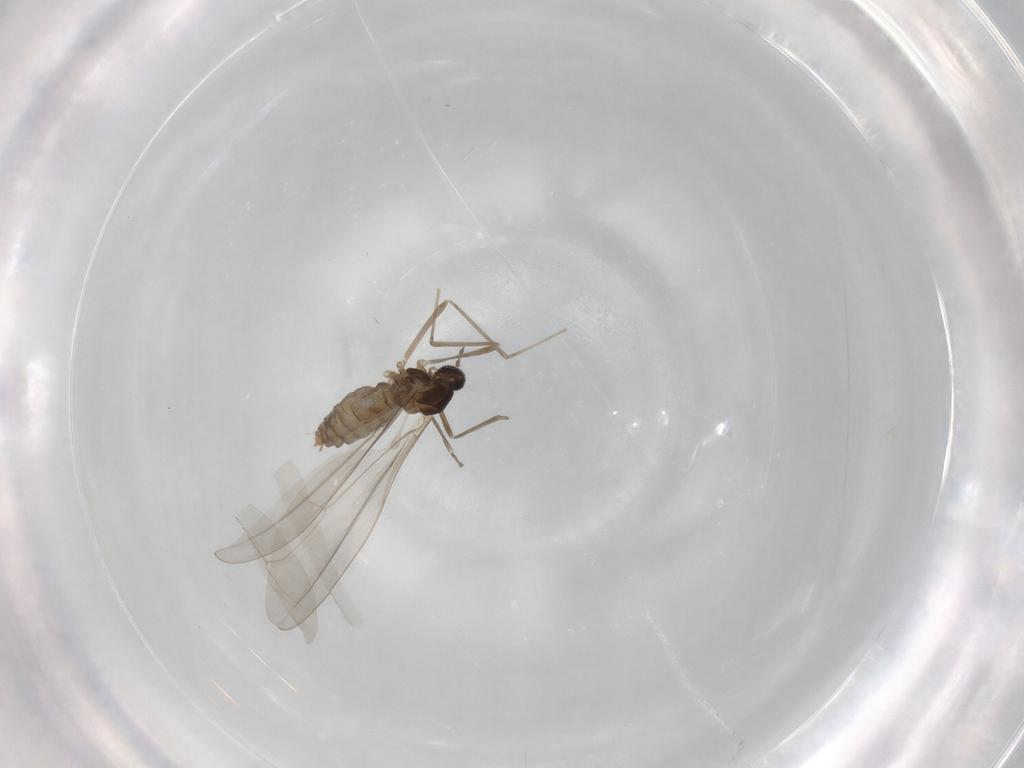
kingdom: Animalia
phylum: Arthropoda
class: Insecta
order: Diptera
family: Cecidomyiidae
